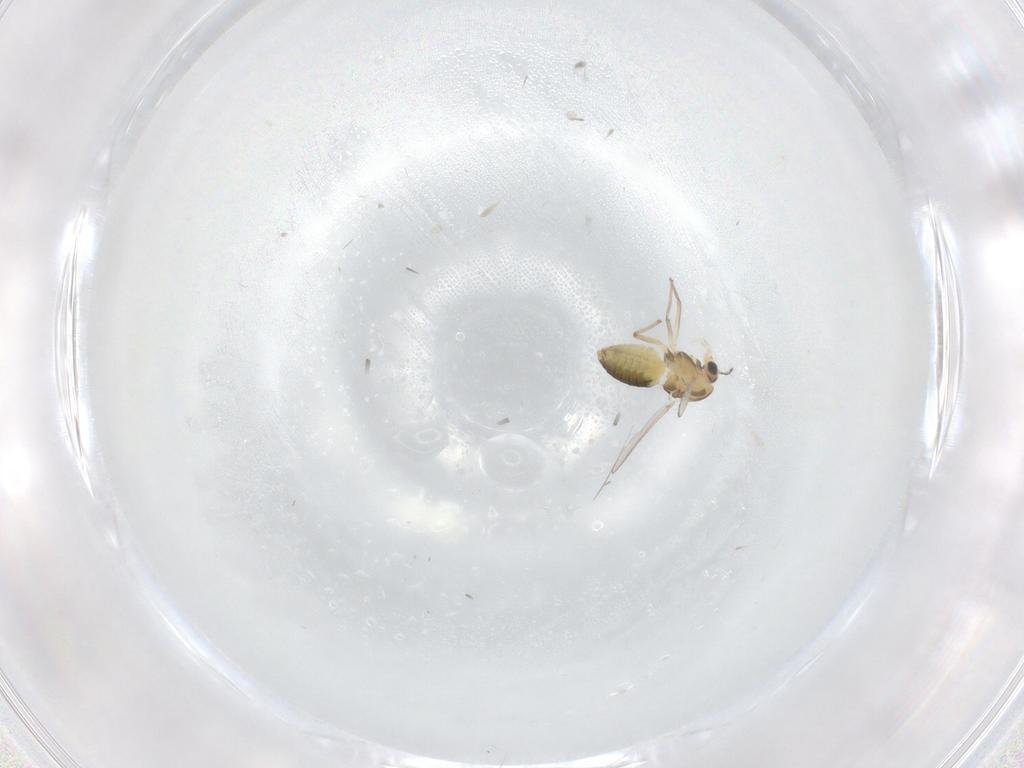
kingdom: Animalia
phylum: Arthropoda
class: Insecta
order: Diptera
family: Chironomidae
